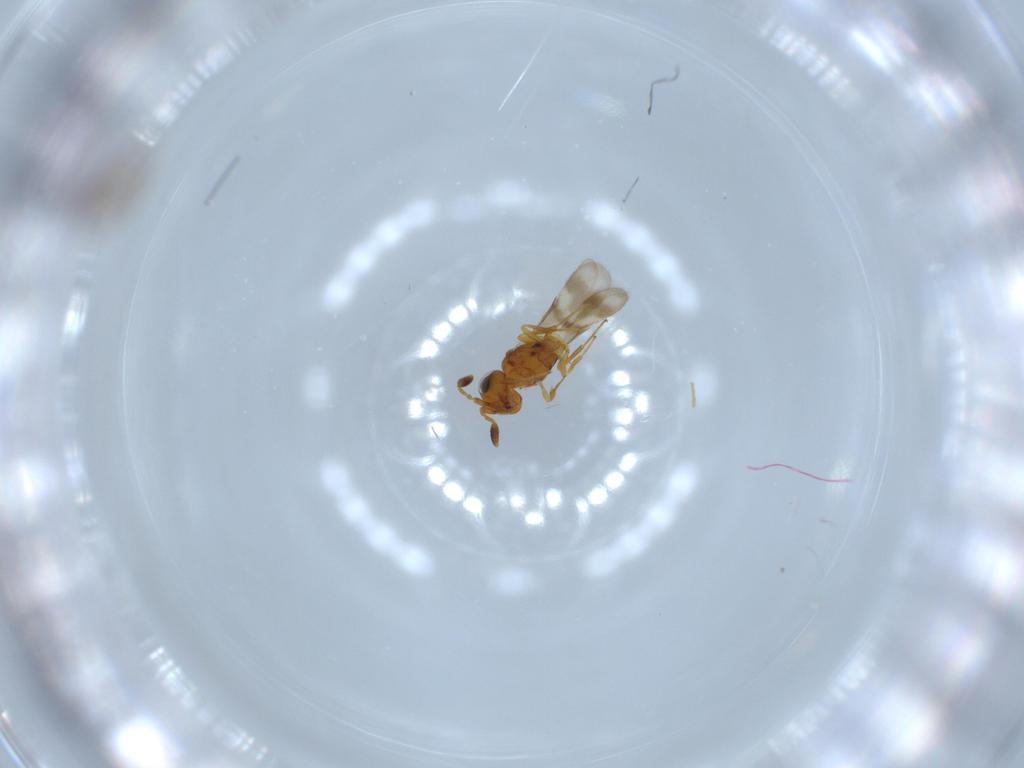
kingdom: Animalia
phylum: Arthropoda
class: Insecta
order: Hymenoptera
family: Scelionidae
